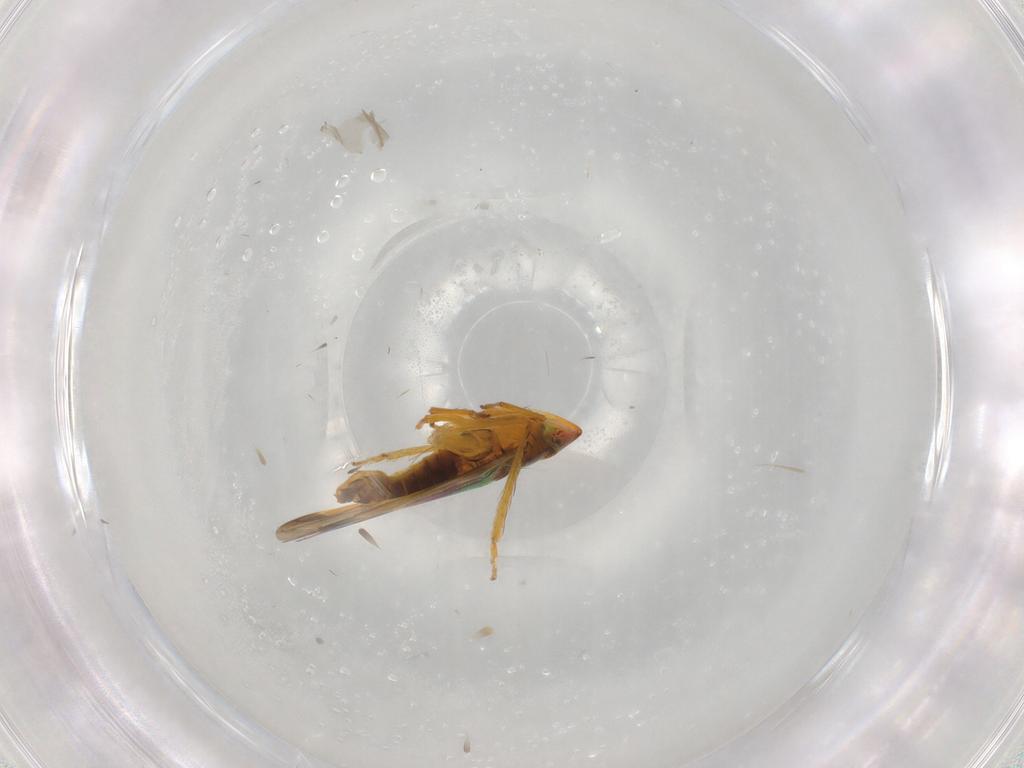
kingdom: Animalia
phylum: Arthropoda
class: Insecta
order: Hemiptera
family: Cicadellidae
